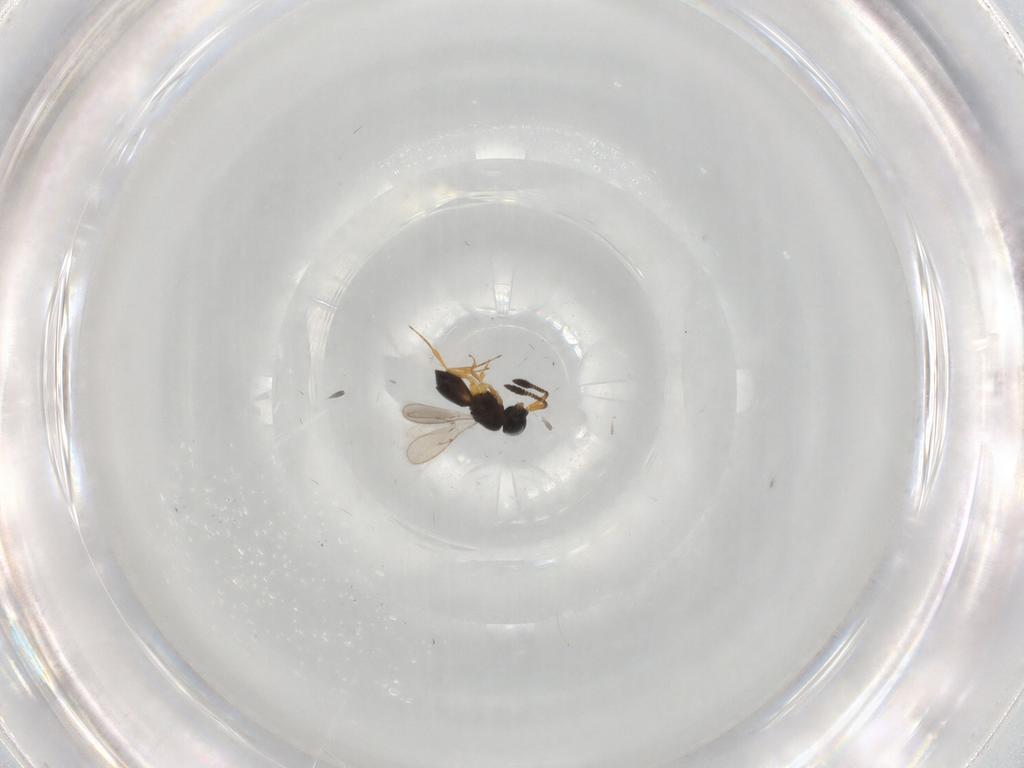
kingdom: Animalia
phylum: Arthropoda
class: Insecta
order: Hymenoptera
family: Scelionidae
